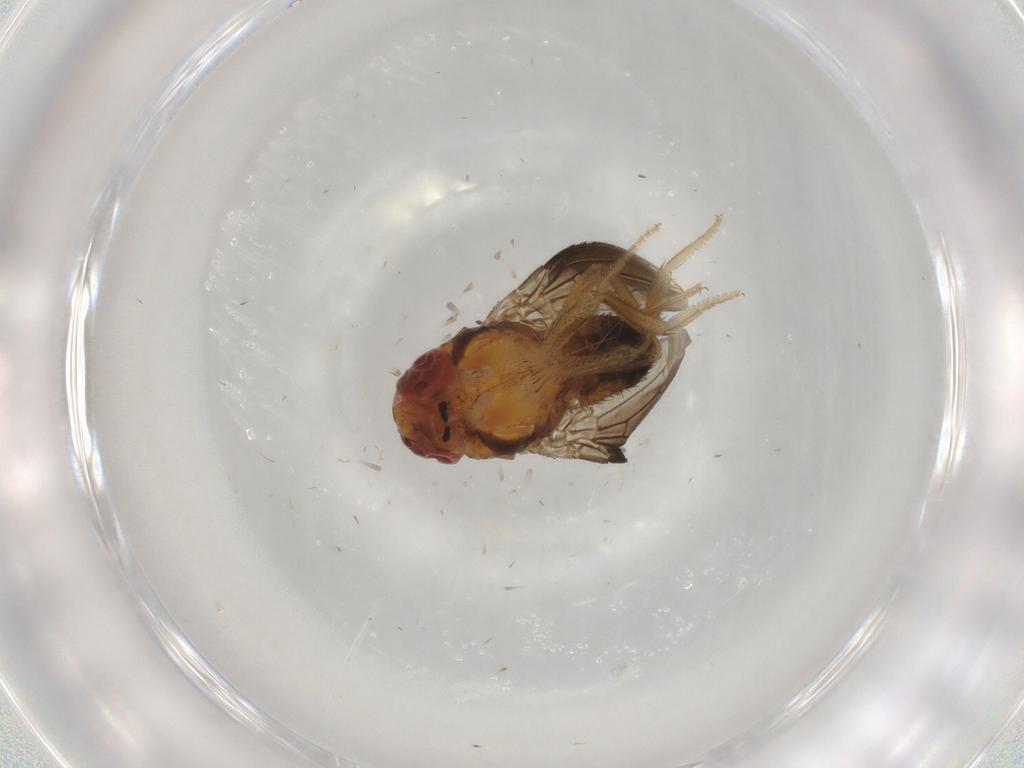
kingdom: Animalia
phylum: Arthropoda
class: Insecta
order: Diptera
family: Drosophilidae
